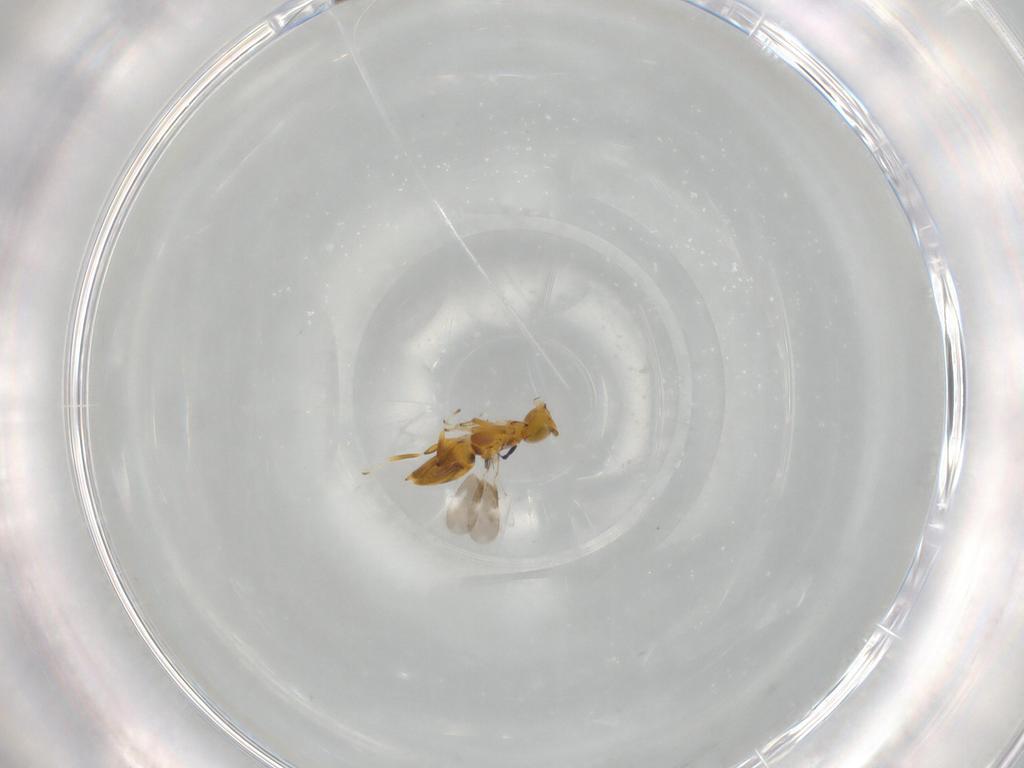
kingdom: Animalia
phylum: Arthropoda
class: Insecta
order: Hymenoptera
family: Encyrtidae
